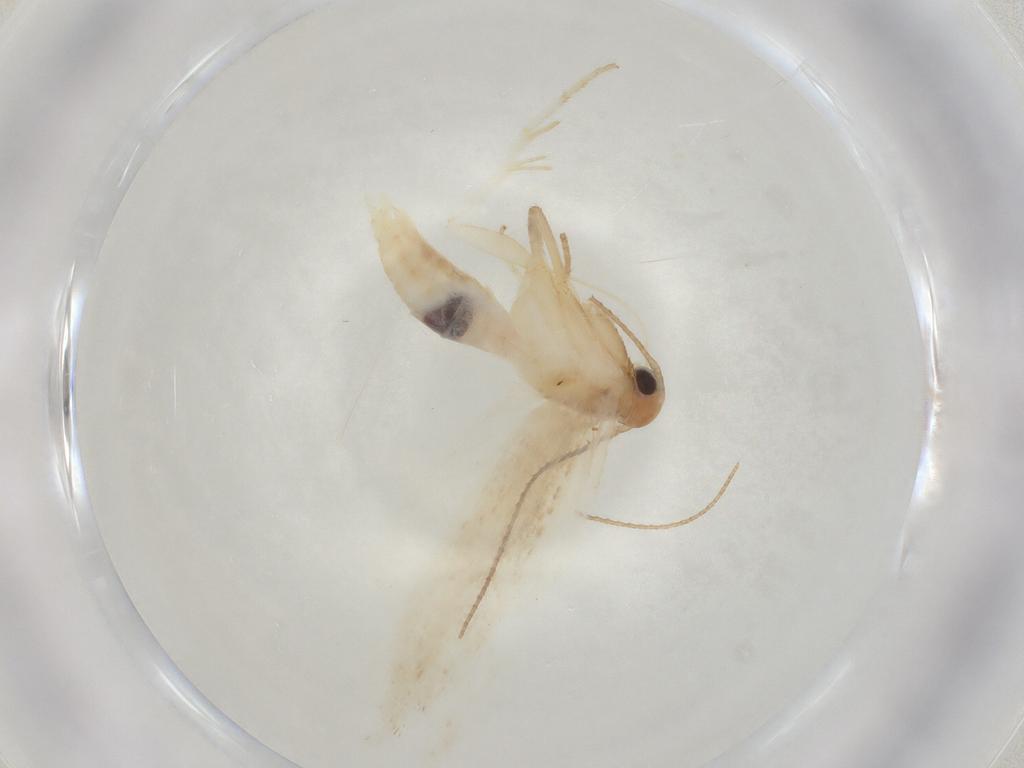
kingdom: Animalia
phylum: Arthropoda
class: Insecta
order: Lepidoptera
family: Gelechiidae
